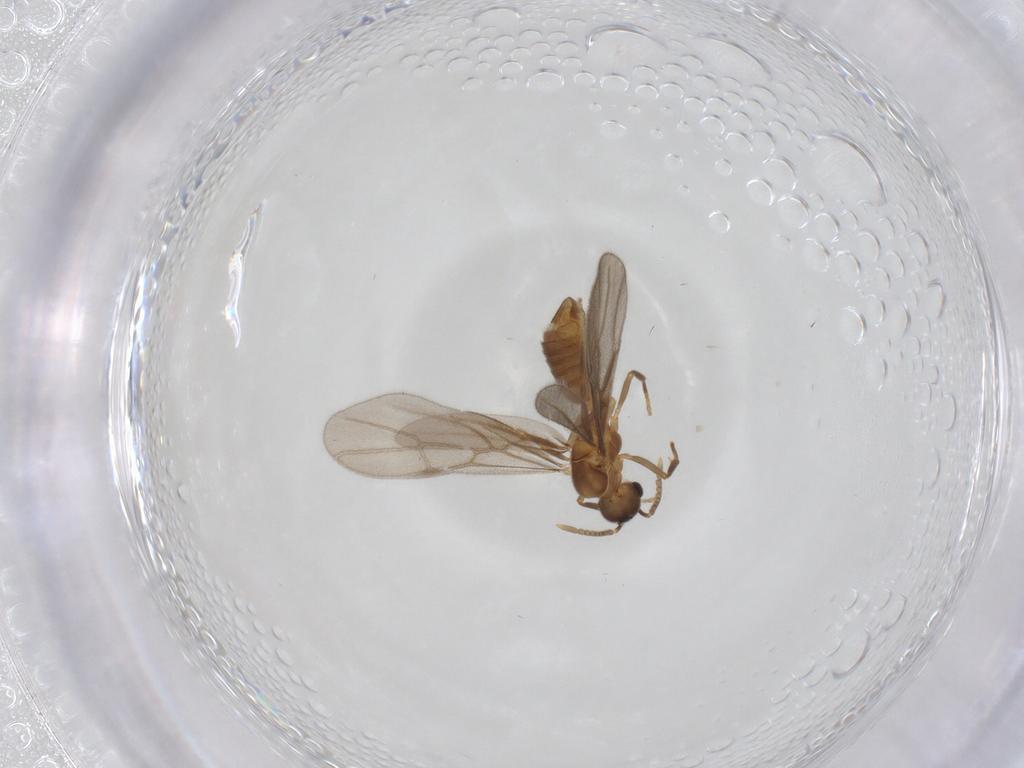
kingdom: Animalia
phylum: Arthropoda
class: Insecta
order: Hymenoptera
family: Formicidae
